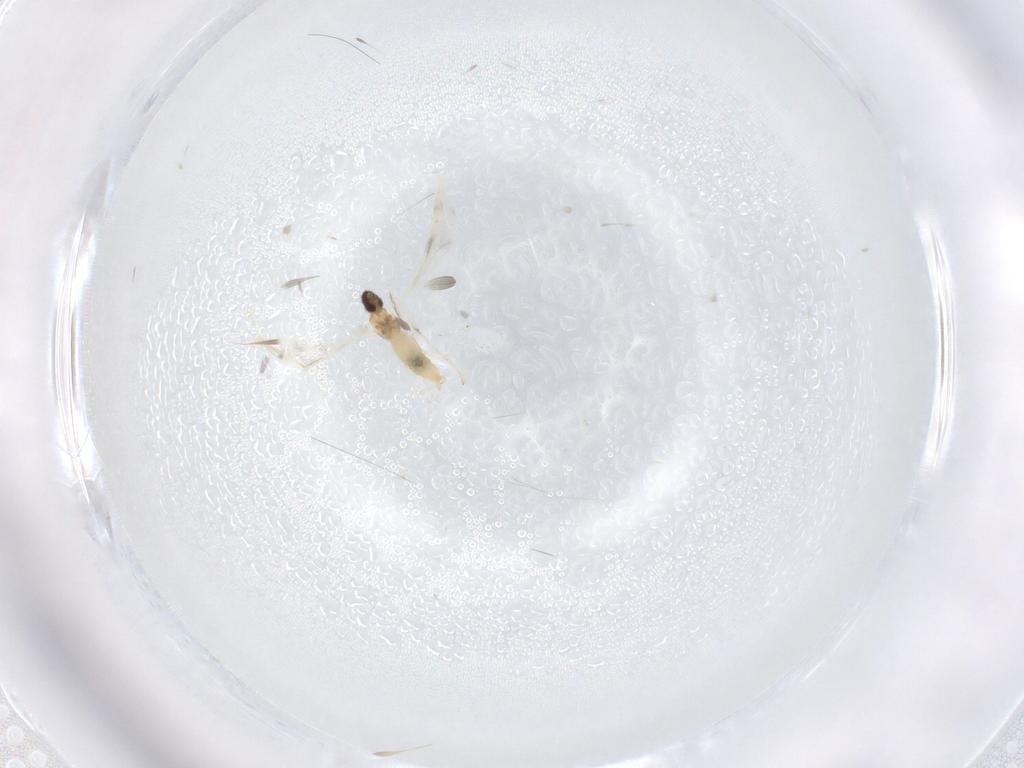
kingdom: Animalia
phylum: Arthropoda
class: Insecta
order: Diptera
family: Cecidomyiidae
